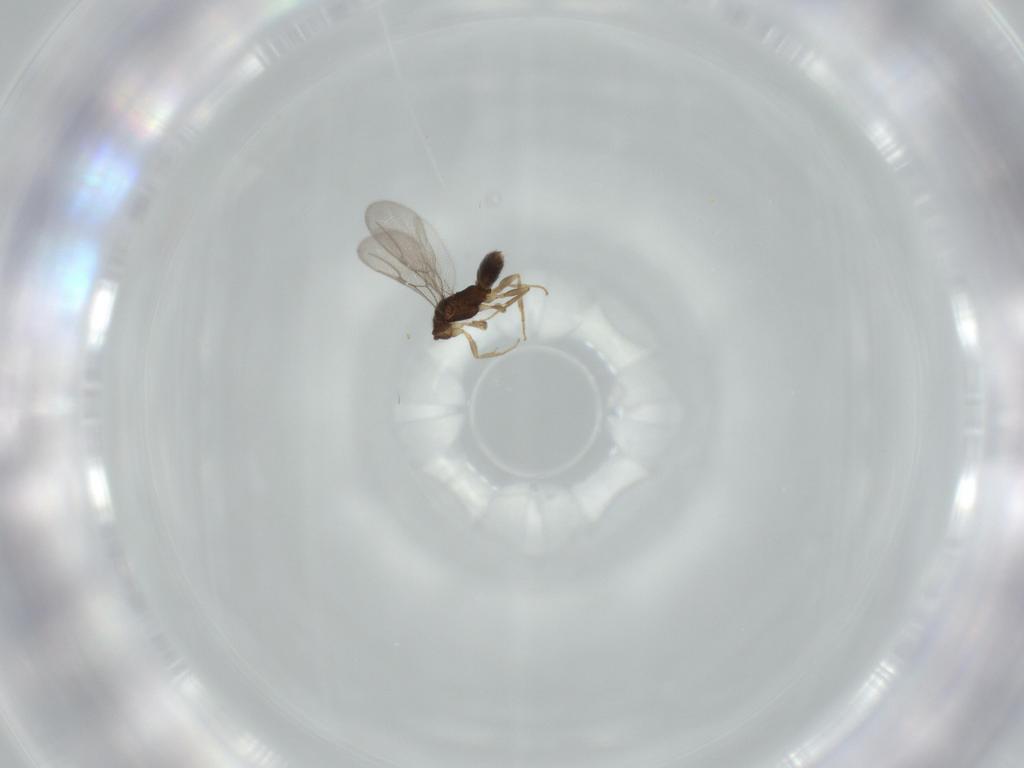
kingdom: Animalia
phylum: Arthropoda
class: Insecta
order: Hymenoptera
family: Bethylidae
